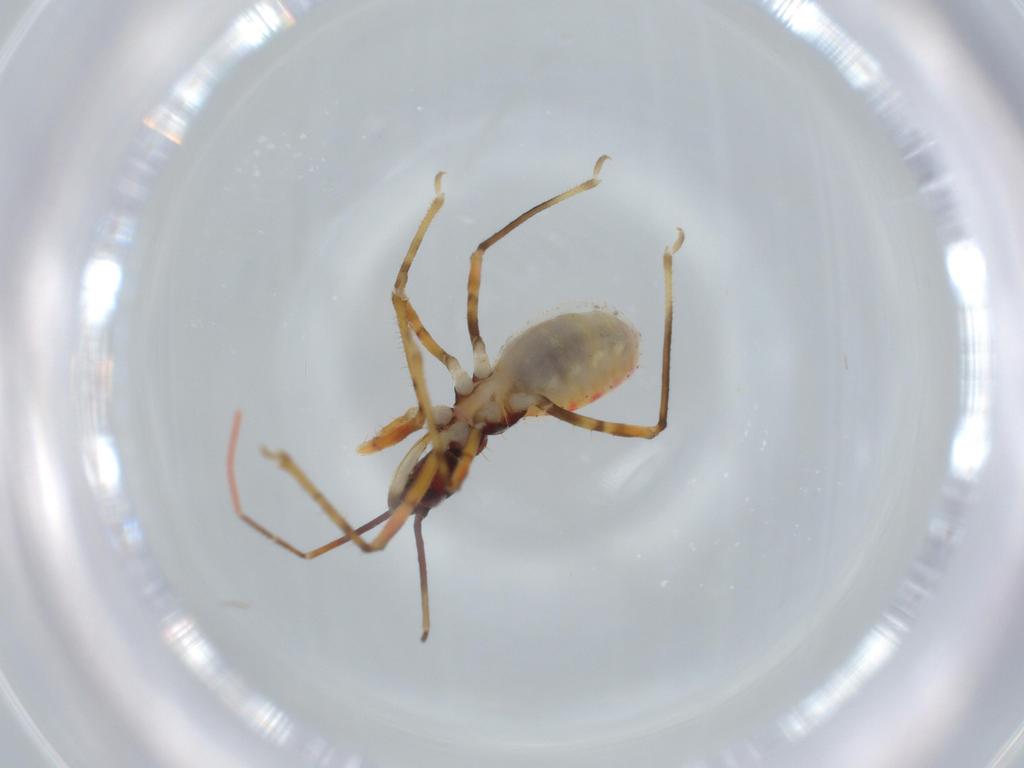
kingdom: Animalia
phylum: Arthropoda
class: Insecta
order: Hemiptera
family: Reduviidae
